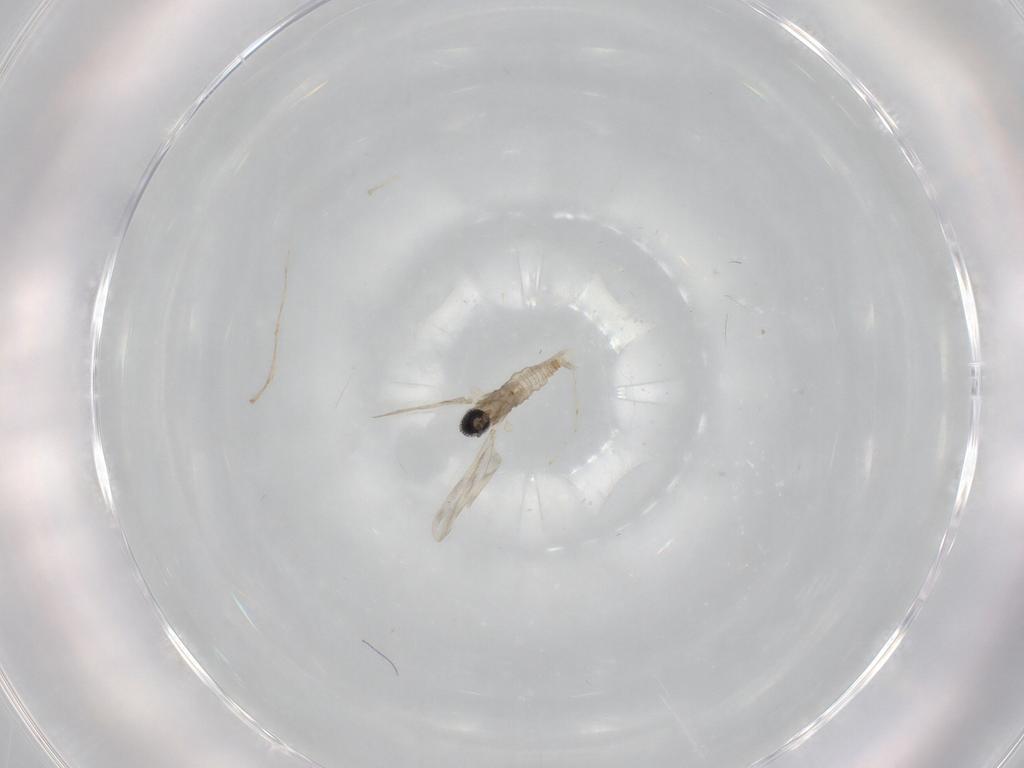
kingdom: Animalia
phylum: Arthropoda
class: Insecta
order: Diptera
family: Cecidomyiidae
